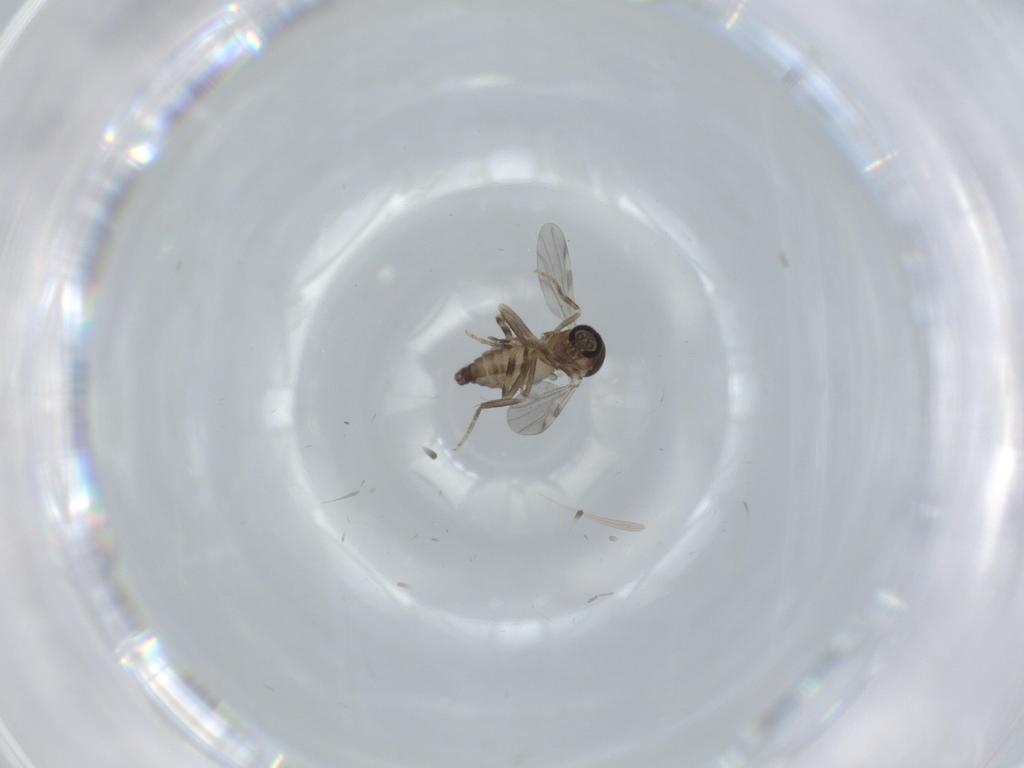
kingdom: Animalia
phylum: Arthropoda
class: Insecta
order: Diptera
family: Ceratopogonidae
